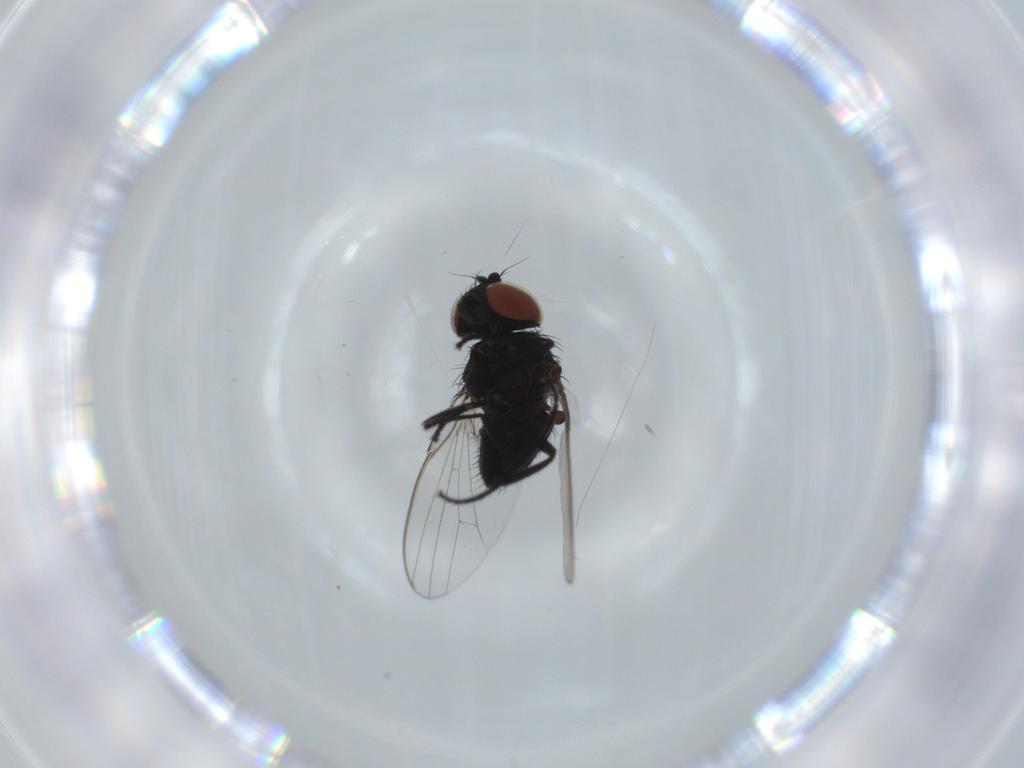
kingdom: Animalia
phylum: Arthropoda
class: Insecta
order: Diptera
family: Milichiidae
